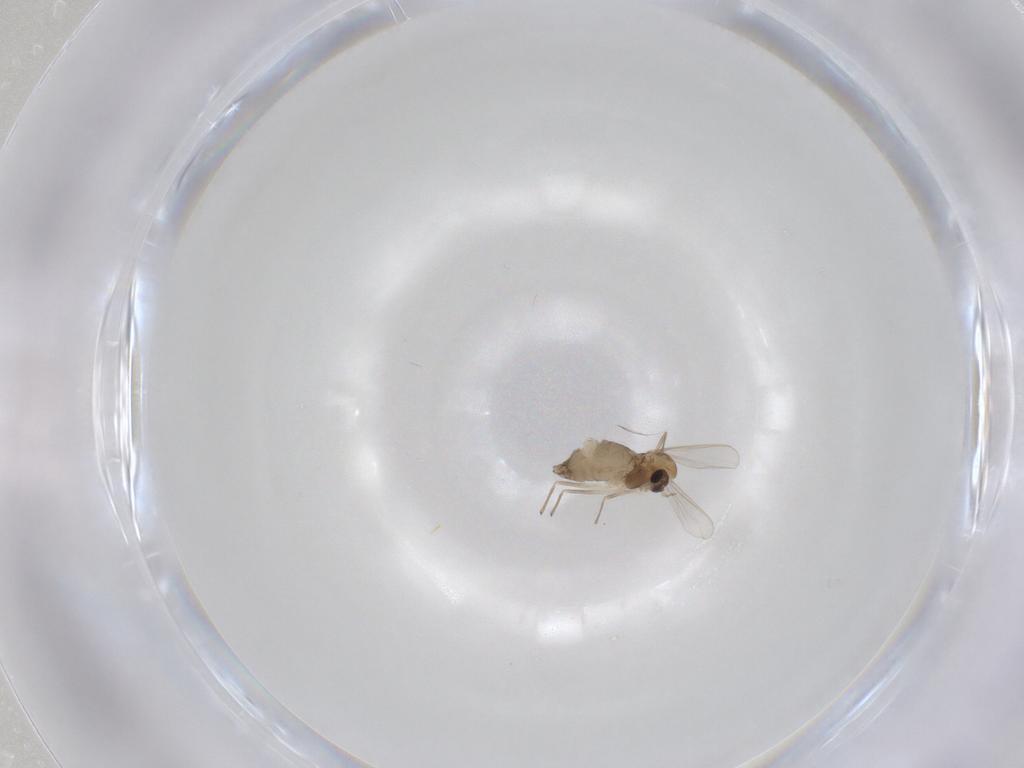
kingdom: Animalia
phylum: Arthropoda
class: Insecta
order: Diptera
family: Chironomidae
